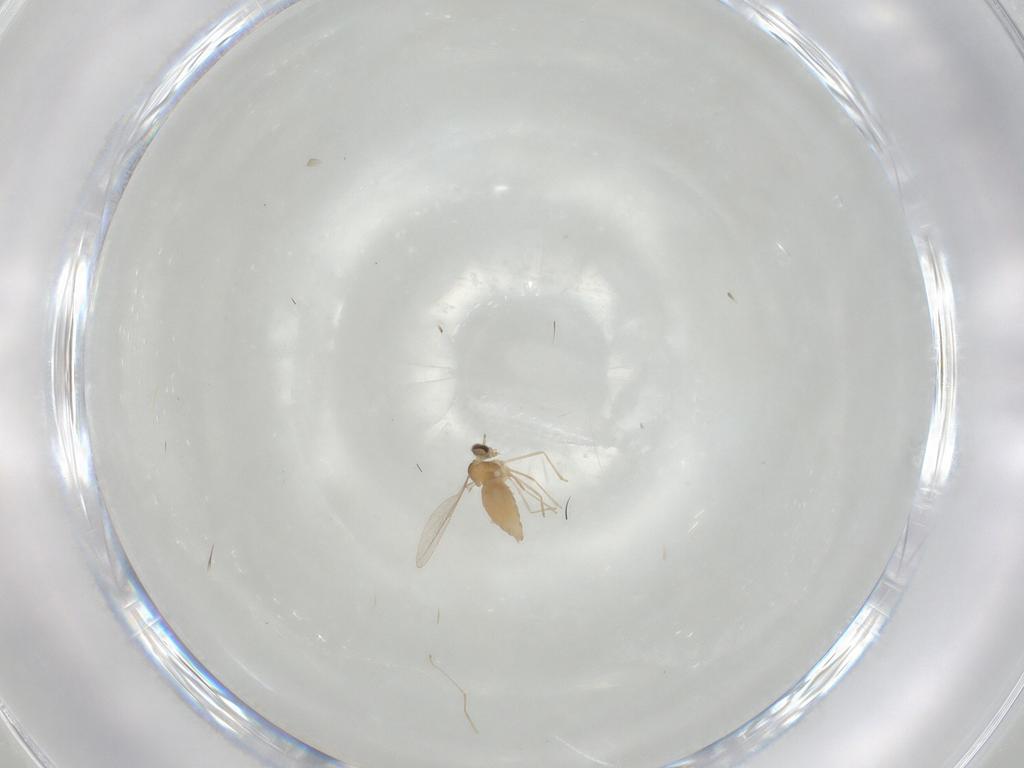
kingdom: Animalia
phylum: Arthropoda
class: Insecta
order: Diptera
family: Cecidomyiidae
